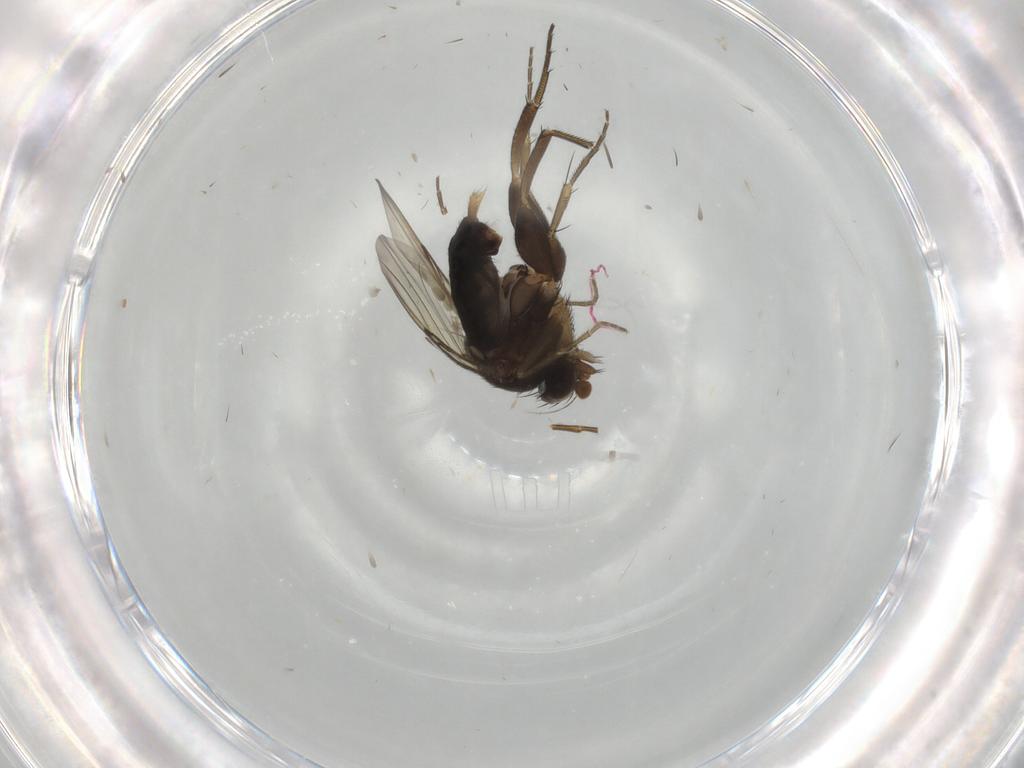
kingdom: Animalia
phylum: Arthropoda
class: Insecta
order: Diptera
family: Phoridae
